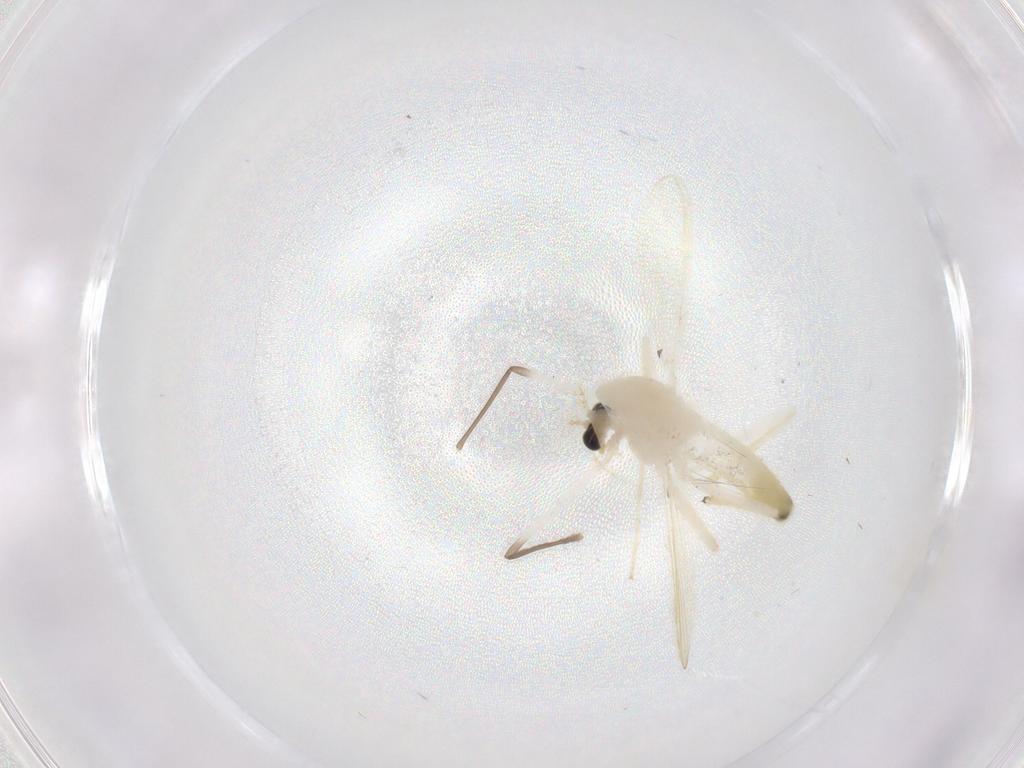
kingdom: Animalia
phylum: Arthropoda
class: Insecta
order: Diptera
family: Chironomidae
